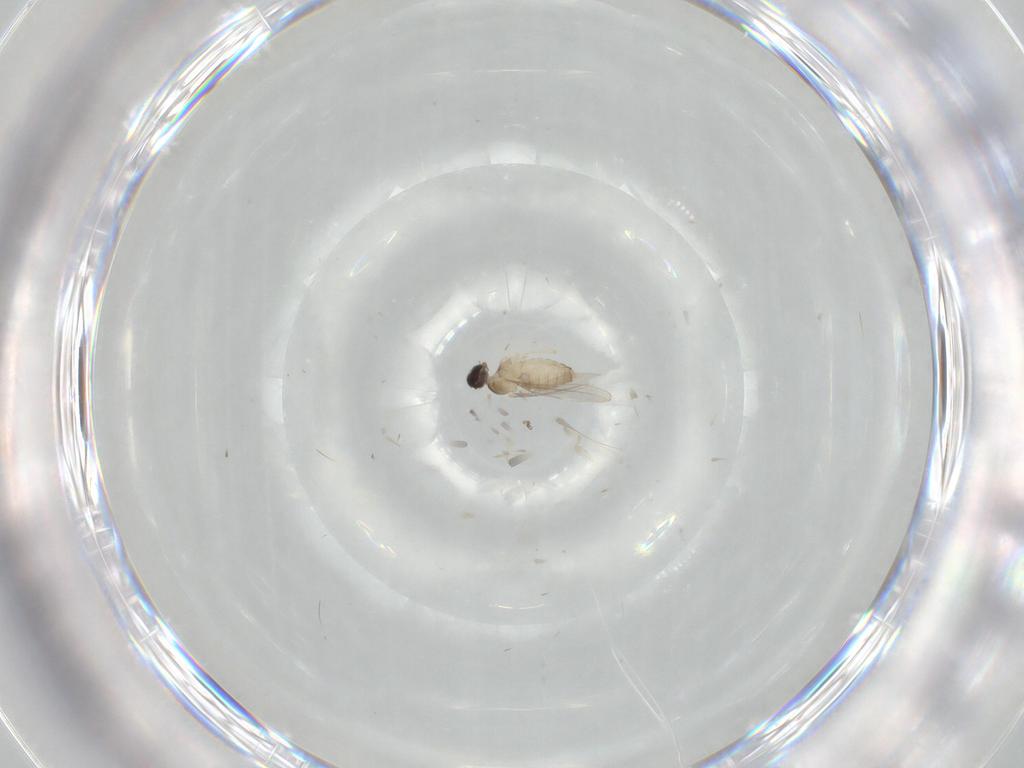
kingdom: Animalia
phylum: Arthropoda
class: Insecta
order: Diptera
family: Cecidomyiidae
